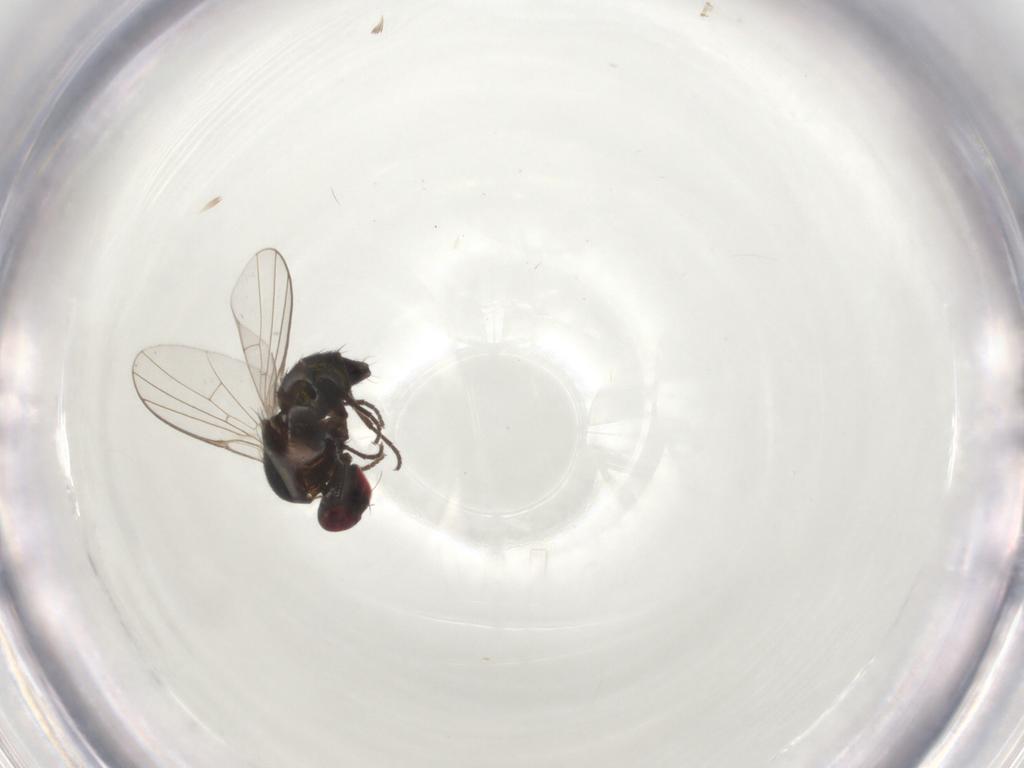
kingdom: Animalia
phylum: Arthropoda
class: Insecta
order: Diptera
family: Agromyzidae
